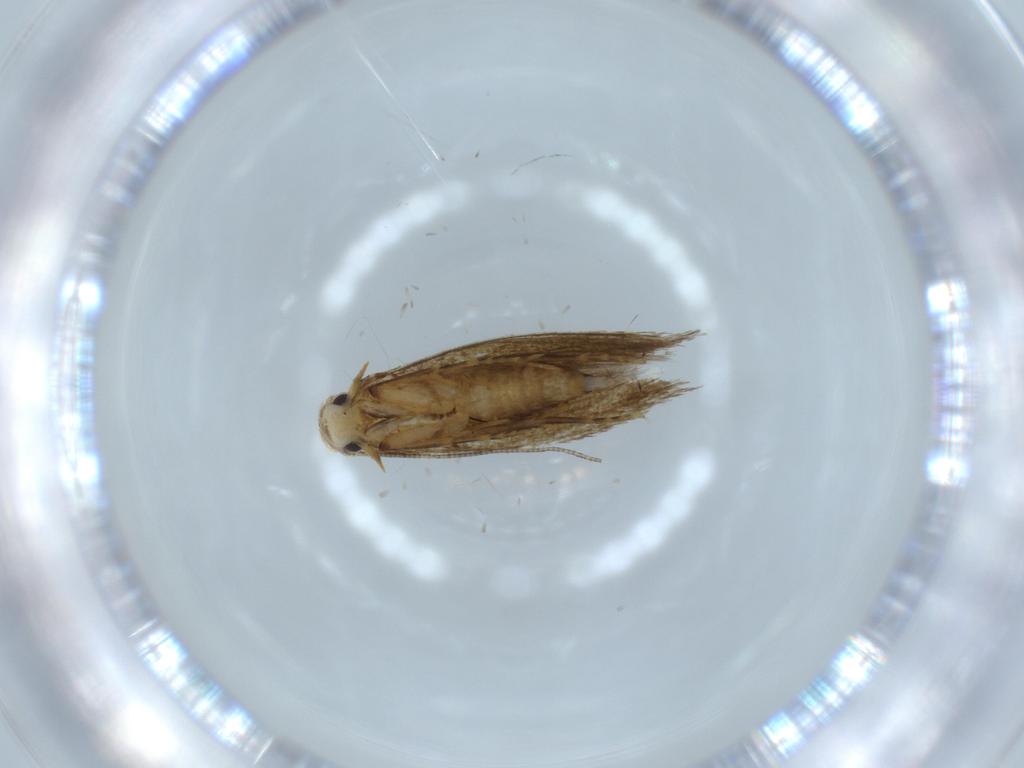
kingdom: Animalia
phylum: Arthropoda
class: Insecta
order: Lepidoptera
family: Tineidae
